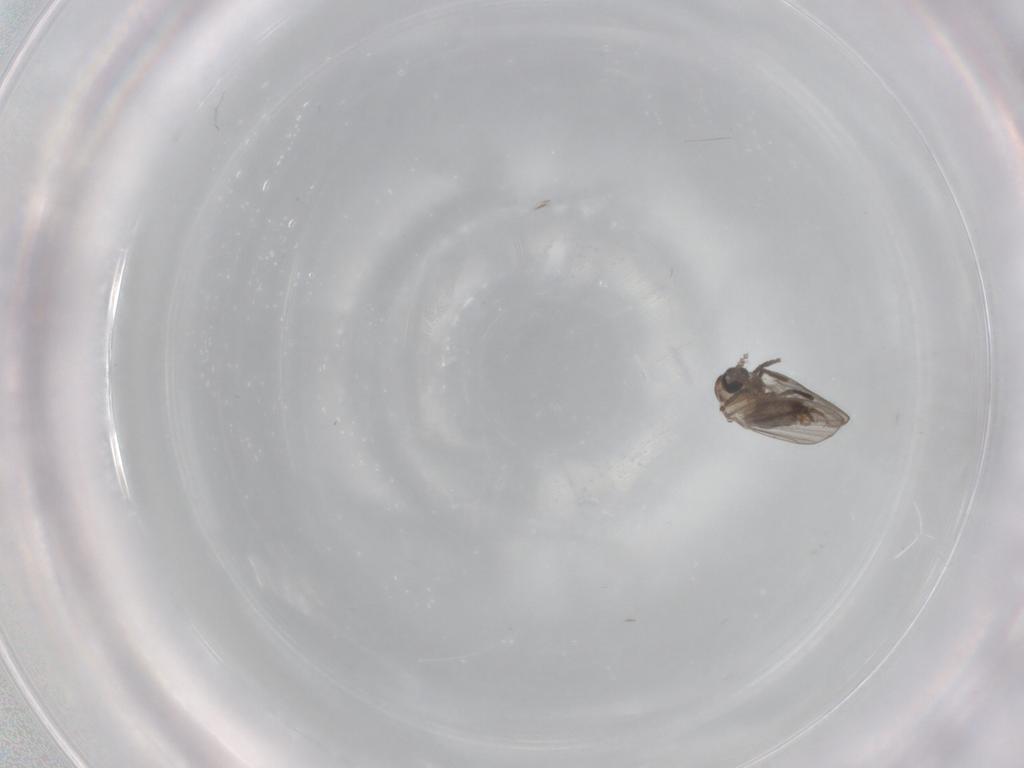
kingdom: Animalia
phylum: Arthropoda
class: Insecta
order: Diptera
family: Psychodidae
